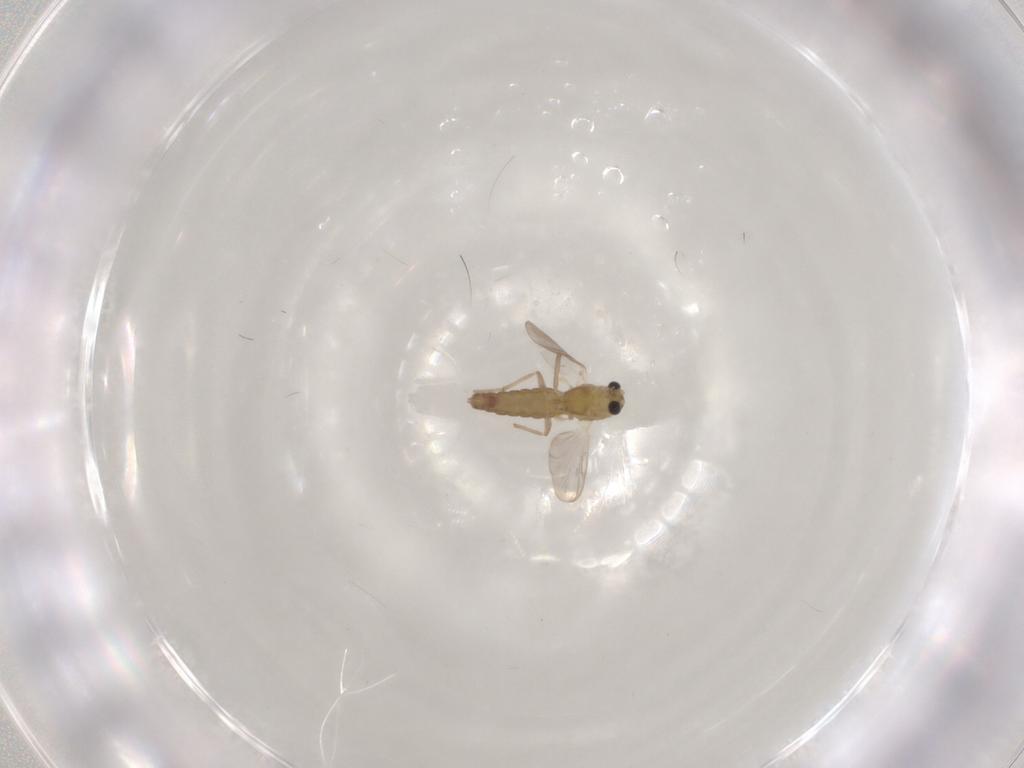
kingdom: Animalia
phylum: Arthropoda
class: Insecta
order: Diptera
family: Chironomidae
